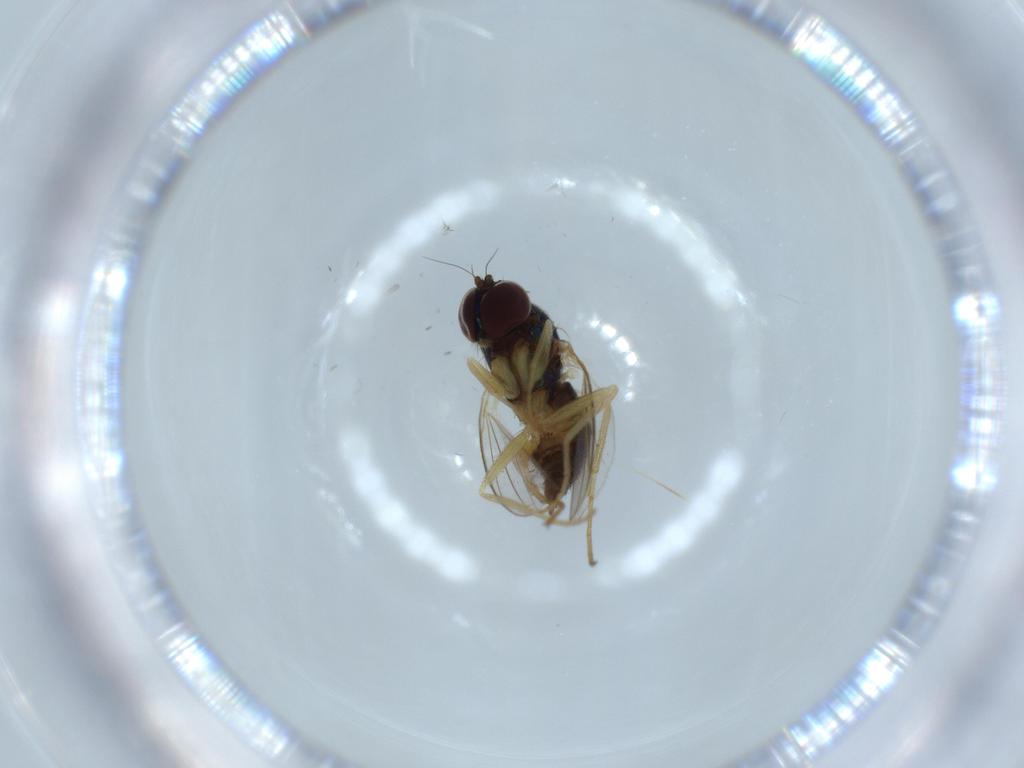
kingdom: Animalia
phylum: Arthropoda
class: Insecta
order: Diptera
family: Dolichopodidae
